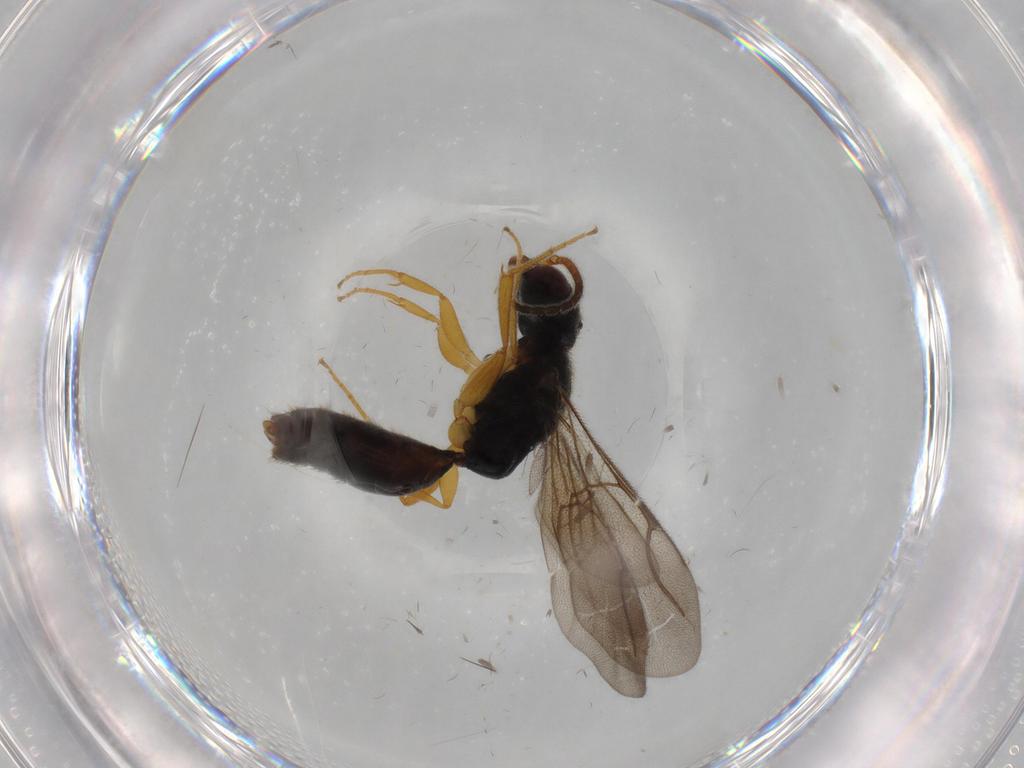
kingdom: Animalia
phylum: Arthropoda
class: Insecta
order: Hymenoptera
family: Bethylidae
